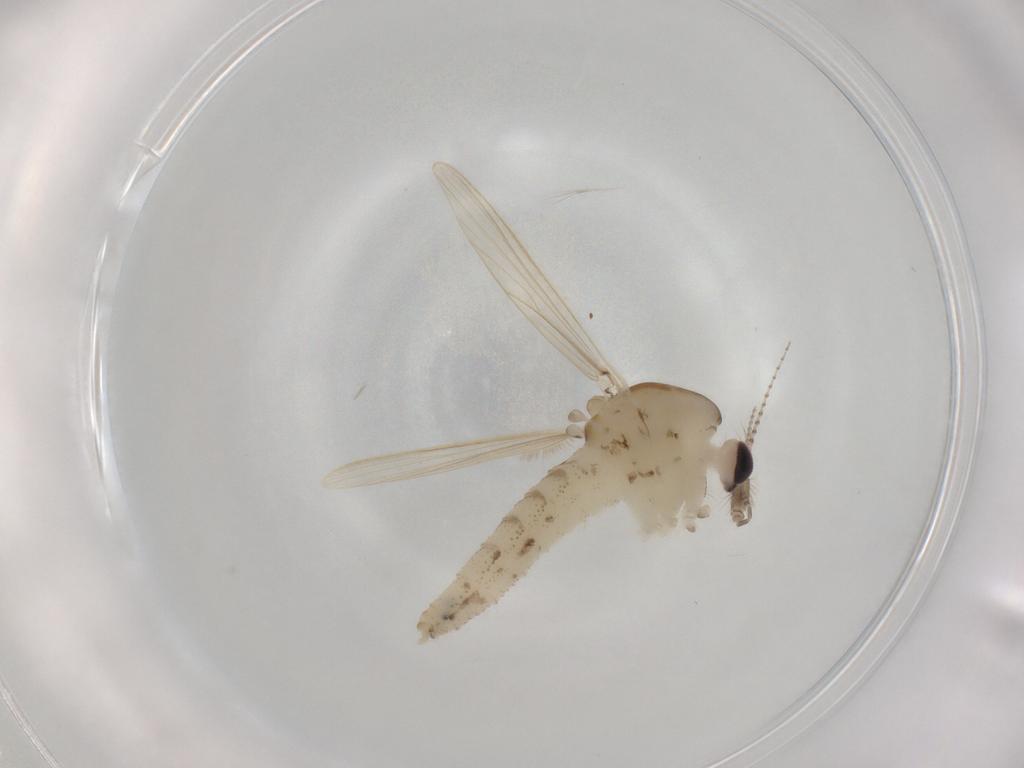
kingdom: Animalia
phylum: Arthropoda
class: Insecta
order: Diptera
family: Chaoboridae
